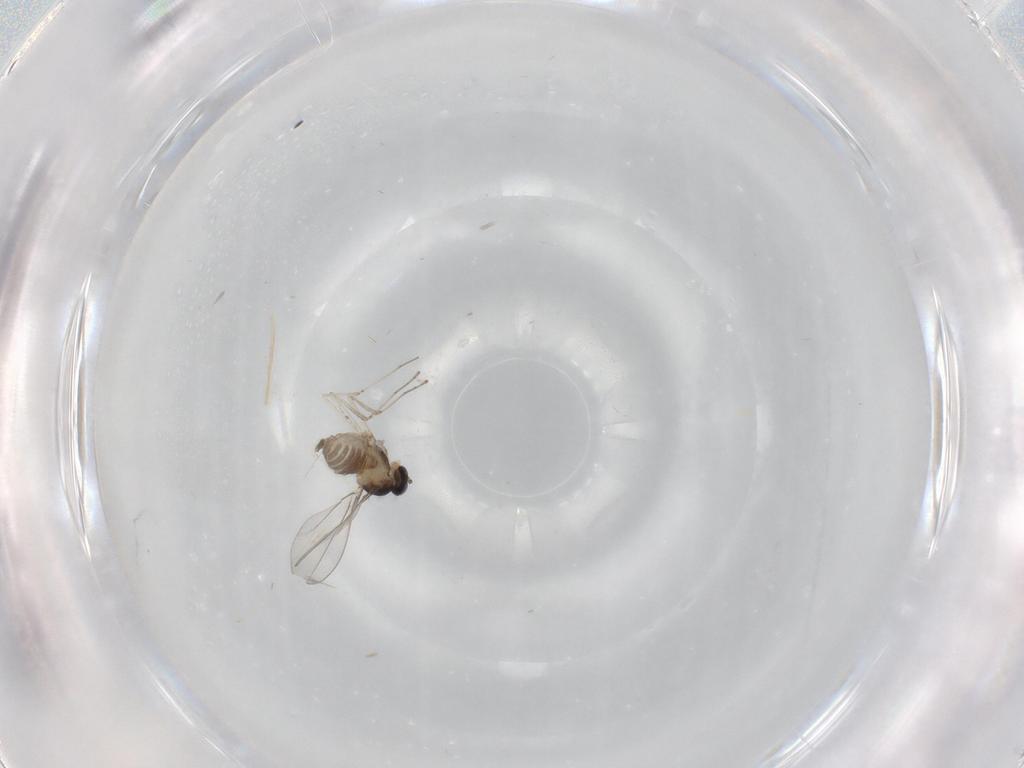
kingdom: Animalia
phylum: Arthropoda
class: Insecta
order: Diptera
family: Cecidomyiidae
